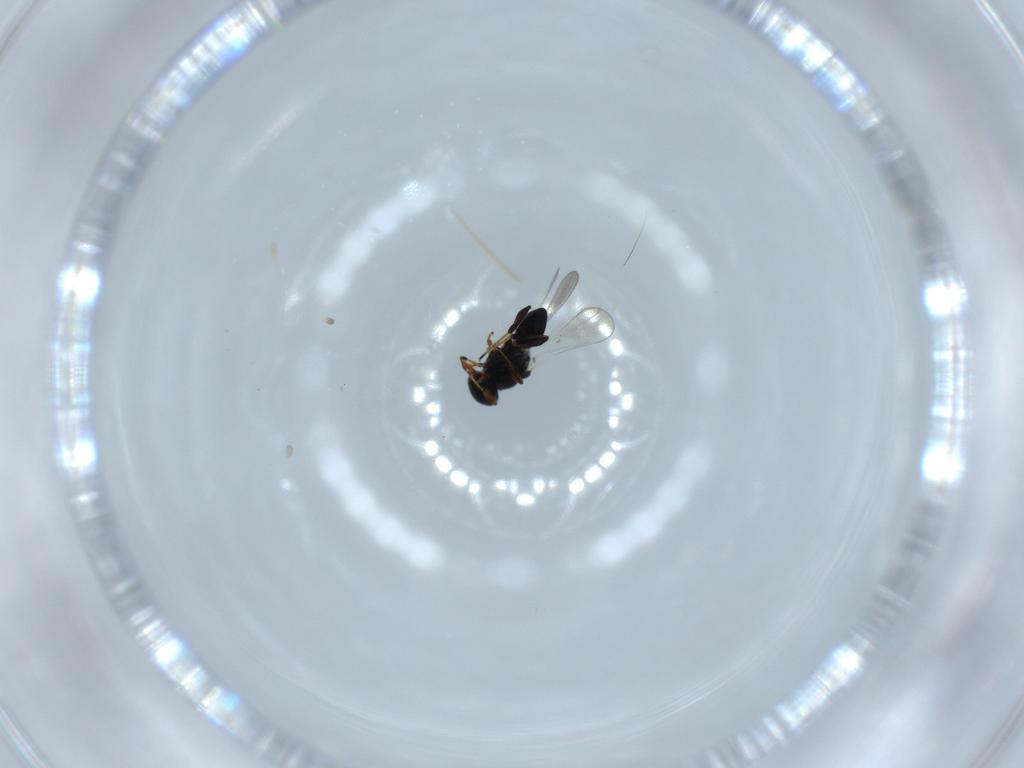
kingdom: Animalia
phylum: Arthropoda
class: Insecta
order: Hymenoptera
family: Platygastridae
